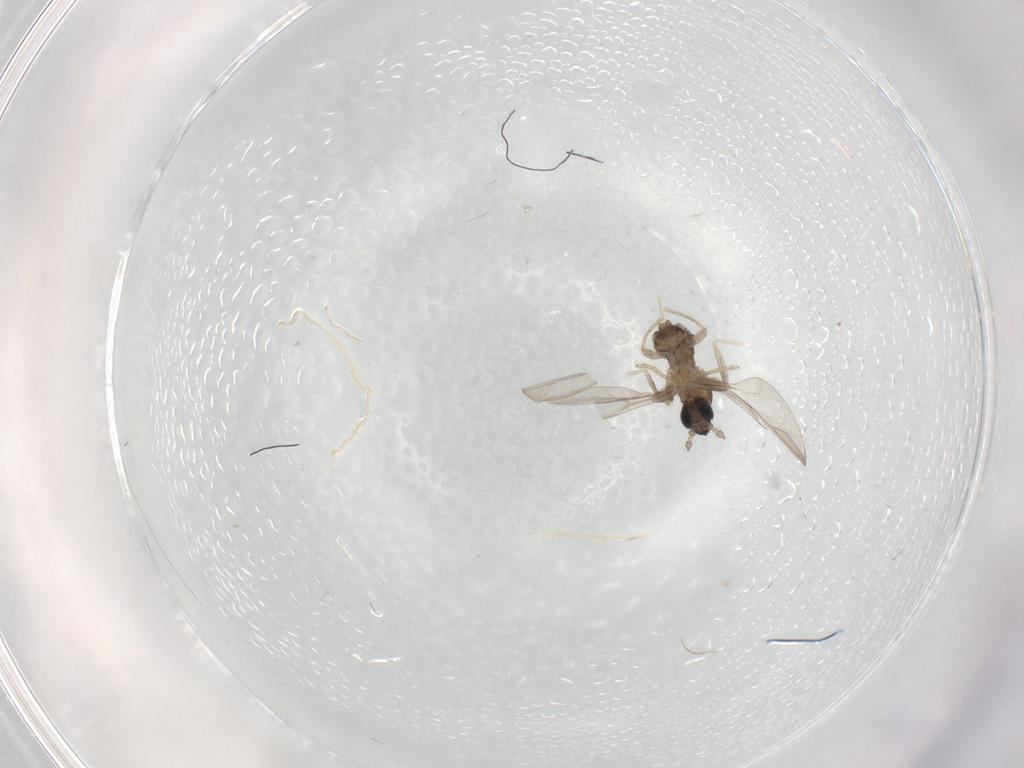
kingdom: Animalia
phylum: Arthropoda
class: Insecta
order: Diptera
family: Cecidomyiidae
